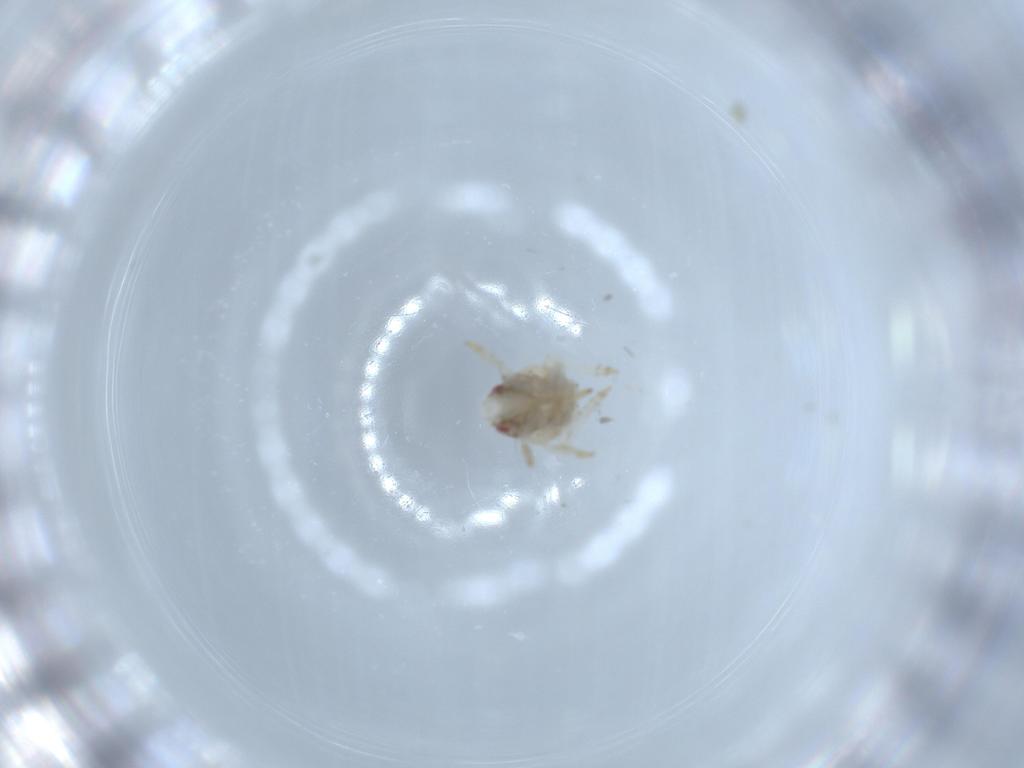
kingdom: Animalia
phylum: Arthropoda
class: Insecta
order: Hemiptera
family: Acanaloniidae
